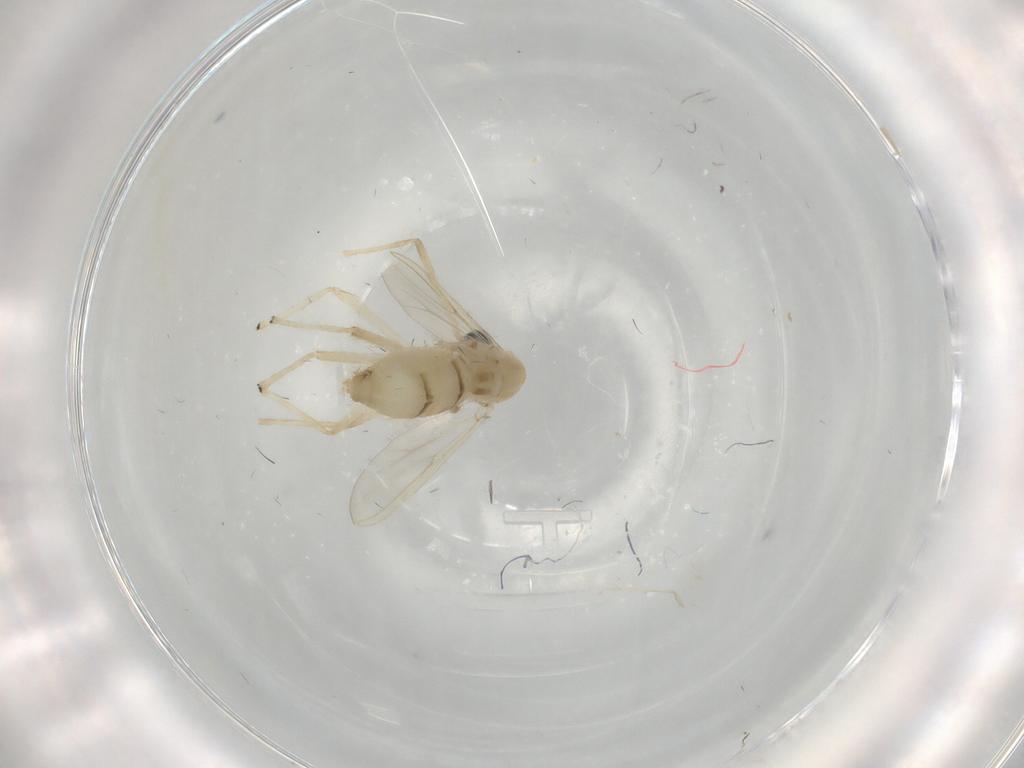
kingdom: Animalia
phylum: Arthropoda
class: Insecta
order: Diptera
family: Chironomidae
